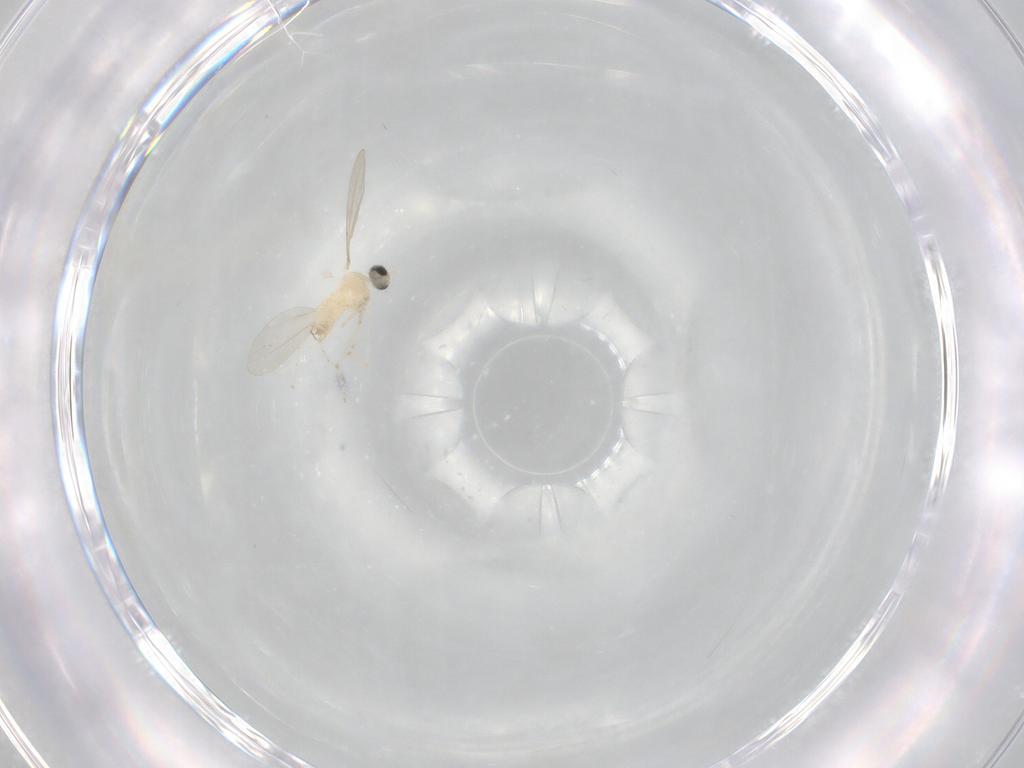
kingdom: Animalia
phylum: Arthropoda
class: Insecta
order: Diptera
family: Cecidomyiidae
